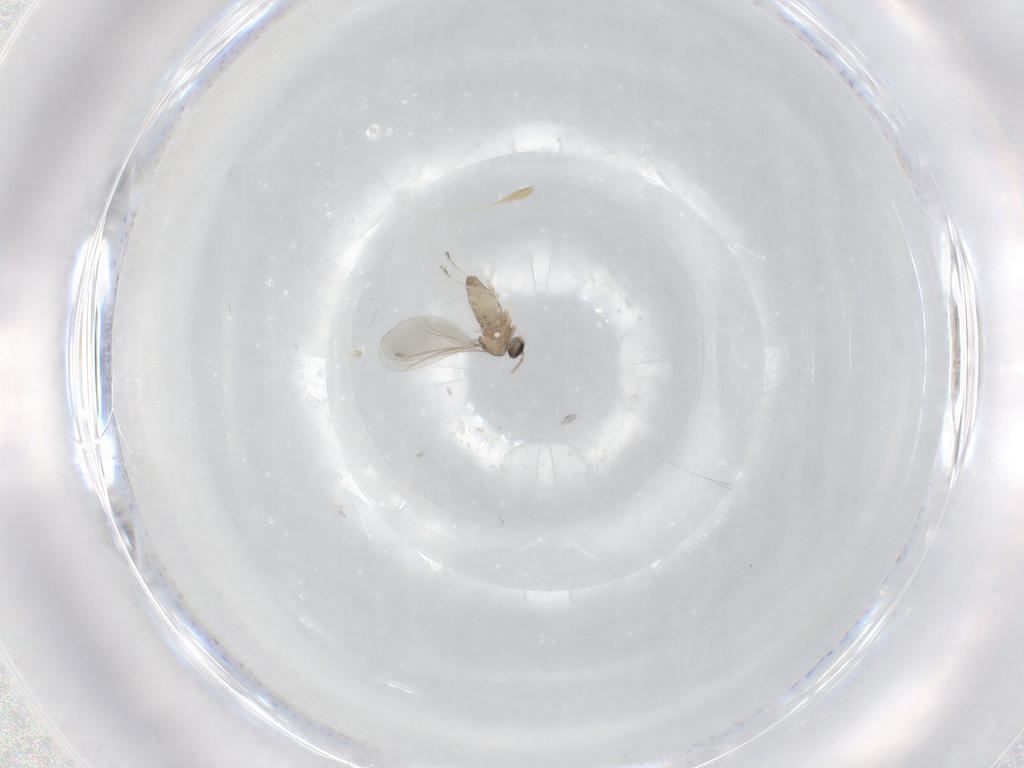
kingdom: Animalia
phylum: Arthropoda
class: Insecta
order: Diptera
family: Cecidomyiidae
